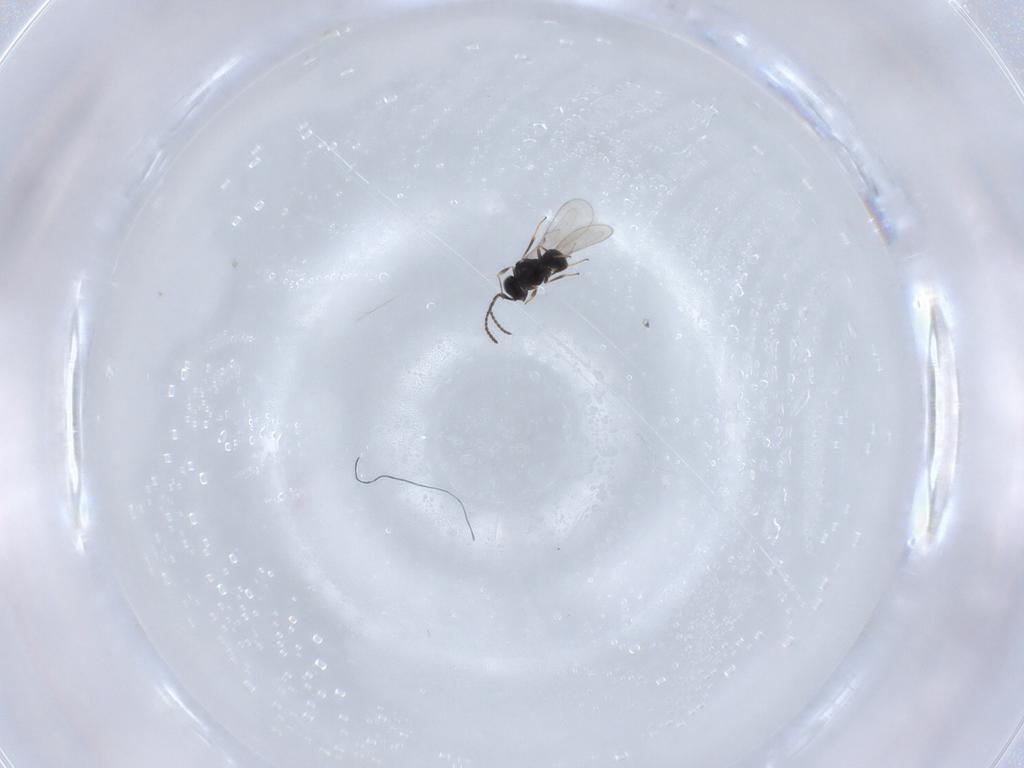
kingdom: Animalia
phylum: Arthropoda
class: Insecta
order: Hymenoptera
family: Scelionidae
